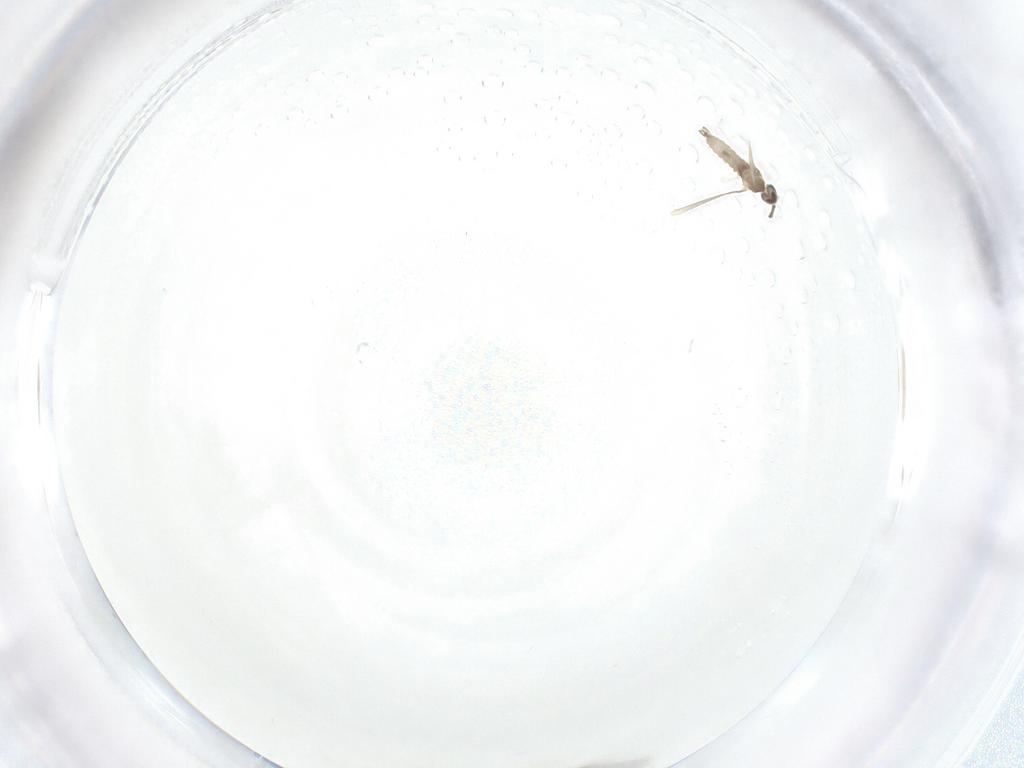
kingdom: Animalia
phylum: Arthropoda
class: Insecta
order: Diptera
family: Cecidomyiidae
